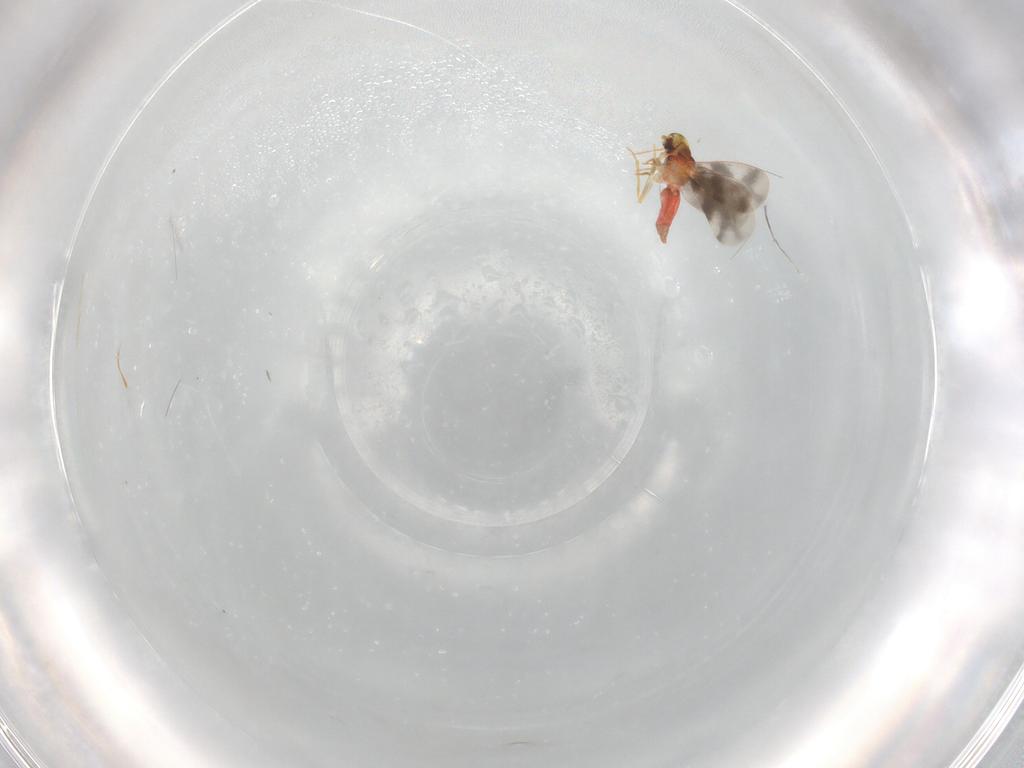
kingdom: Animalia
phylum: Arthropoda
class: Insecta
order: Hemiptera
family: Aleyrodidae
